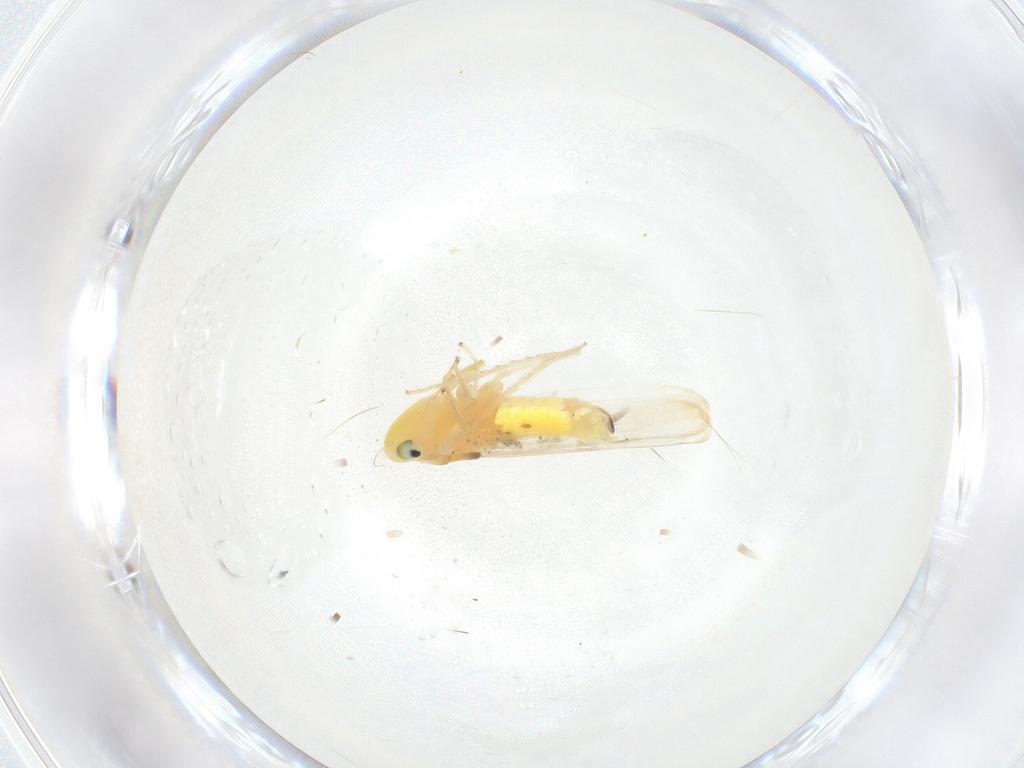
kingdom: Animalia
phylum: Arthropoda
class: Insecta
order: Hemiptera
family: Cicadellidae
